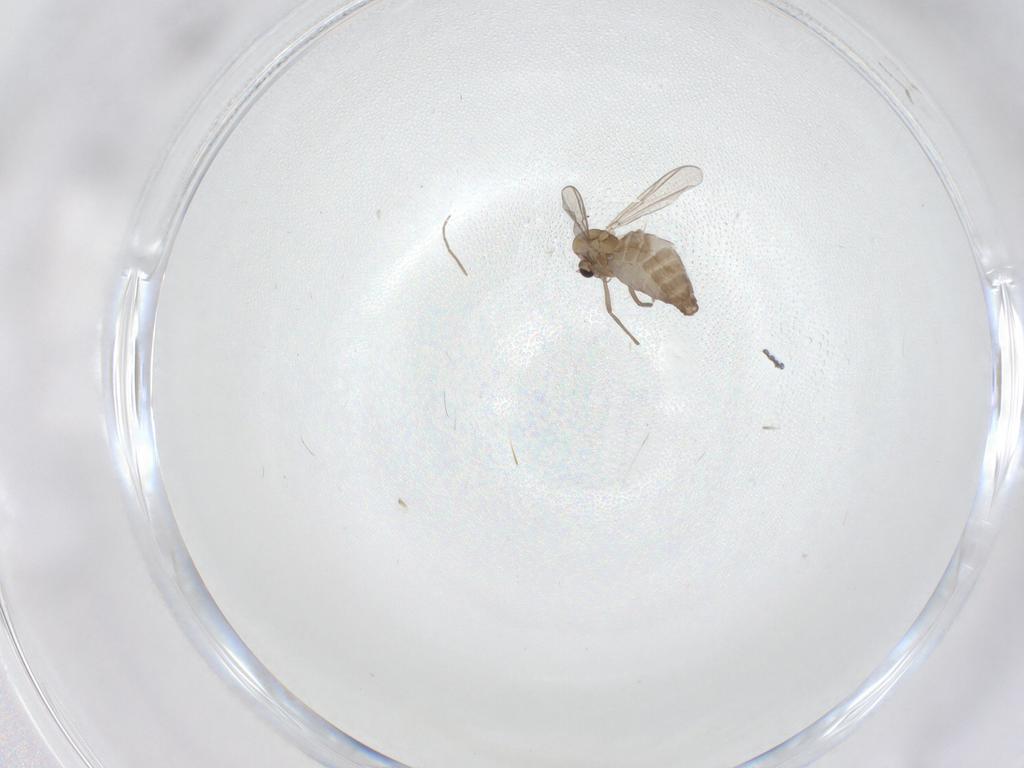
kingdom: Animalia
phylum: Arthropoda
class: Insecta
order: Diptera
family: Chironomidae
